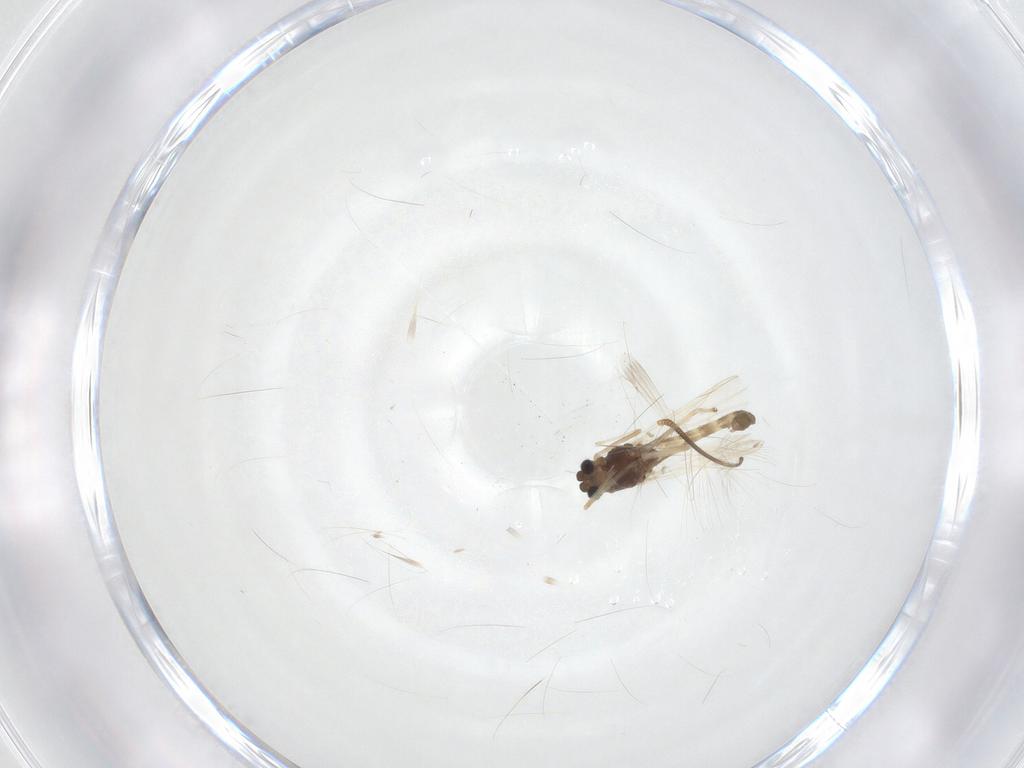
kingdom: Animalia
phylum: Arthropoda
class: Insecta
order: Diptera
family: Chironomidae
